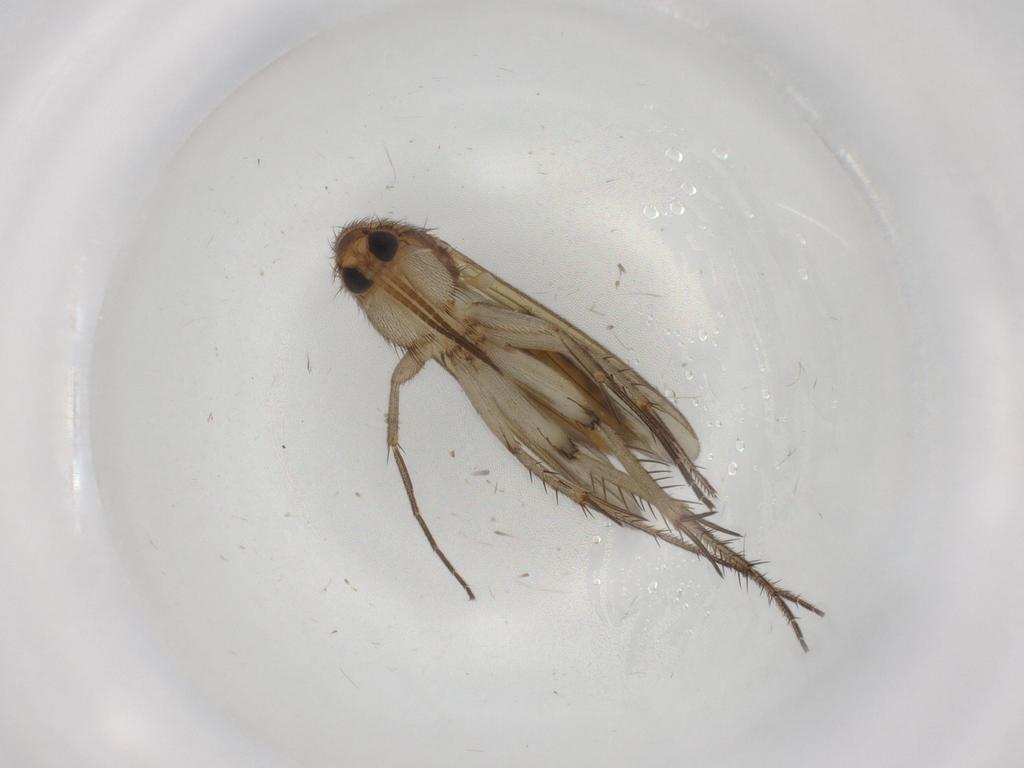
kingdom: Animalia
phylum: Arthropoda
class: Insecta
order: Diptera
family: Mycetophilidae
